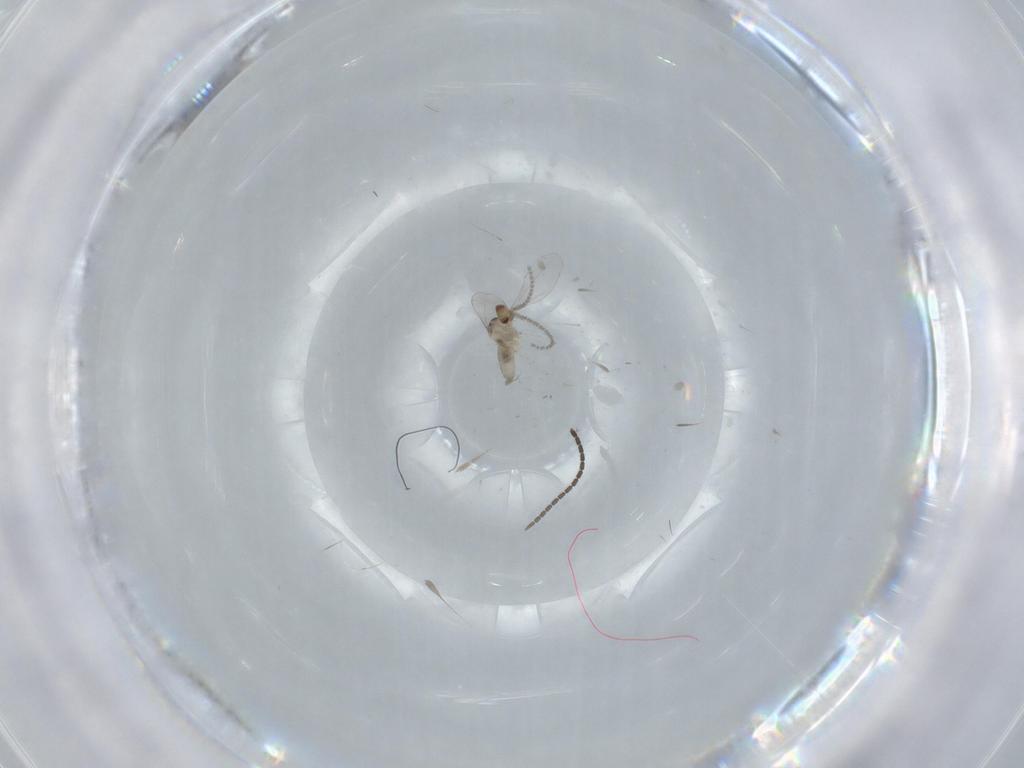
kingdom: Animalia
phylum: Arthropoda
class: Insecta
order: Diptera
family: Sciaridae
